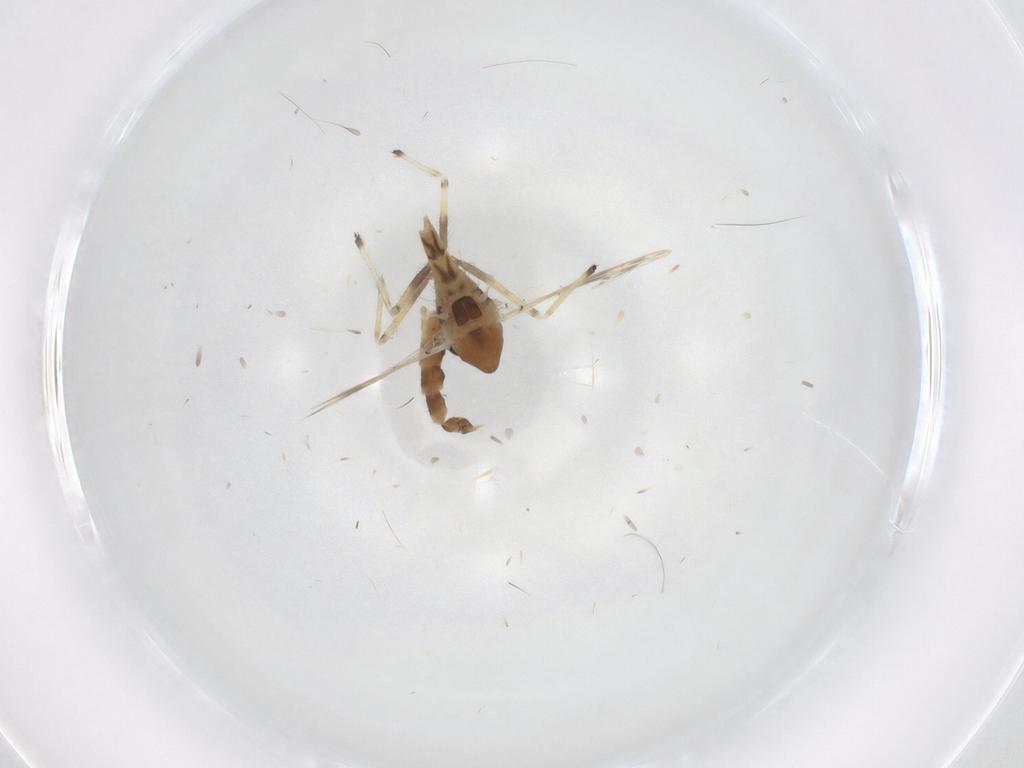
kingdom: Animalia
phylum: Arthropoda
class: Insecta
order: Diptera
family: Chironomidae
